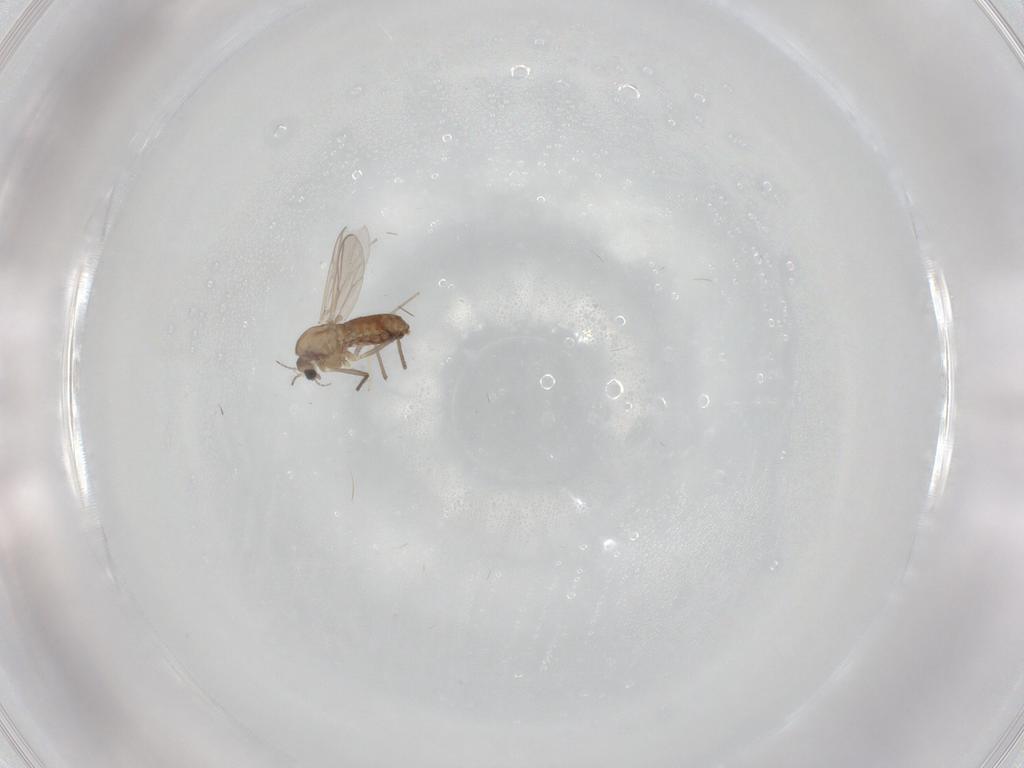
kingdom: Animalia
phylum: Arthropoda
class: Insecta
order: Diptera
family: Chironomidae
